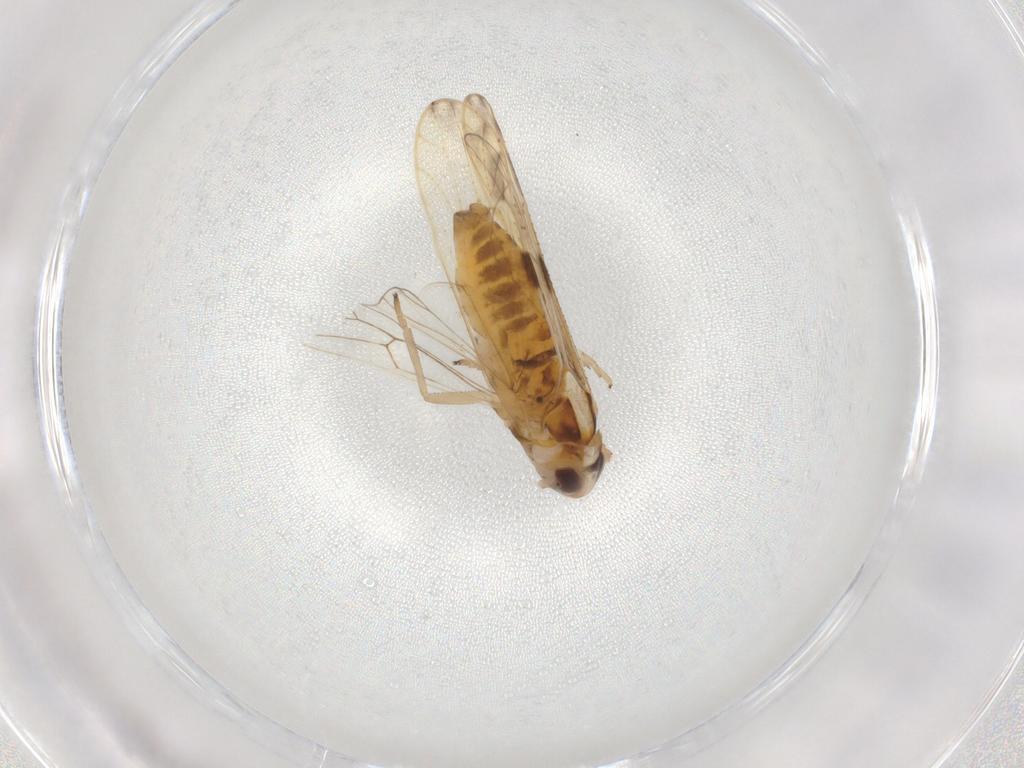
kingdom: Animalia
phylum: Arthropoda
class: Insecta
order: Hemiptera
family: Delphacidae
